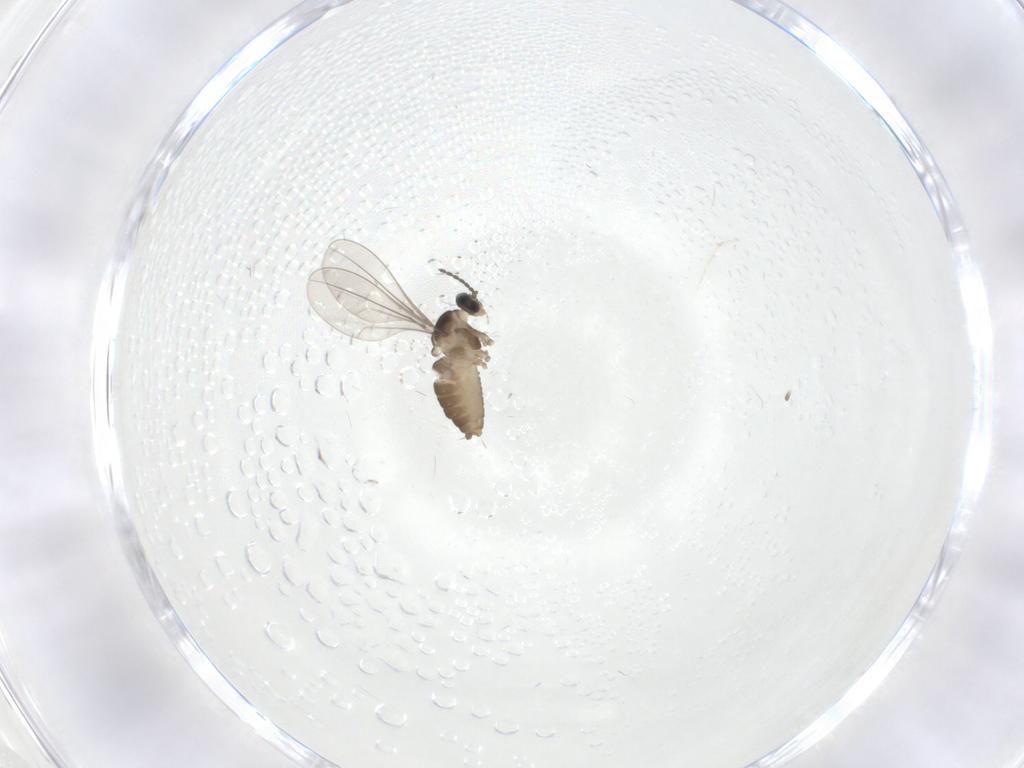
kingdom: Animalia
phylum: Arthropoda
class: Insecta
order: Diptera
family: Cecidomyiidae
